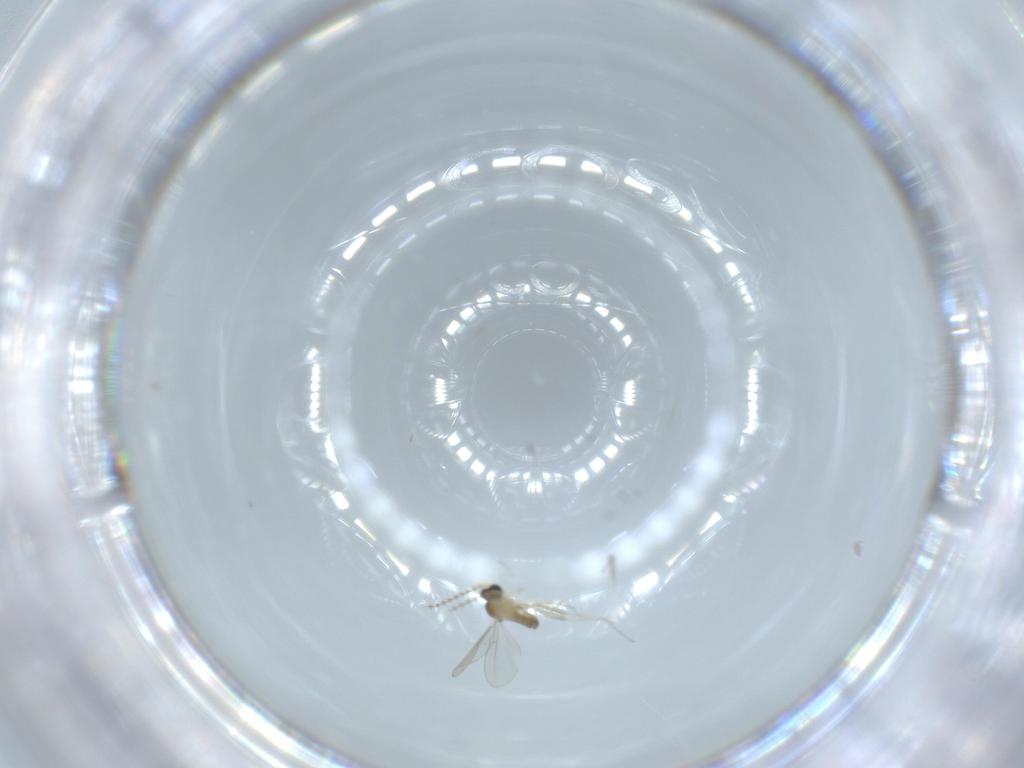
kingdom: Animalia
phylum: Arthropoda
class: Insecta
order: Diptera
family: Cecidomyiidae
